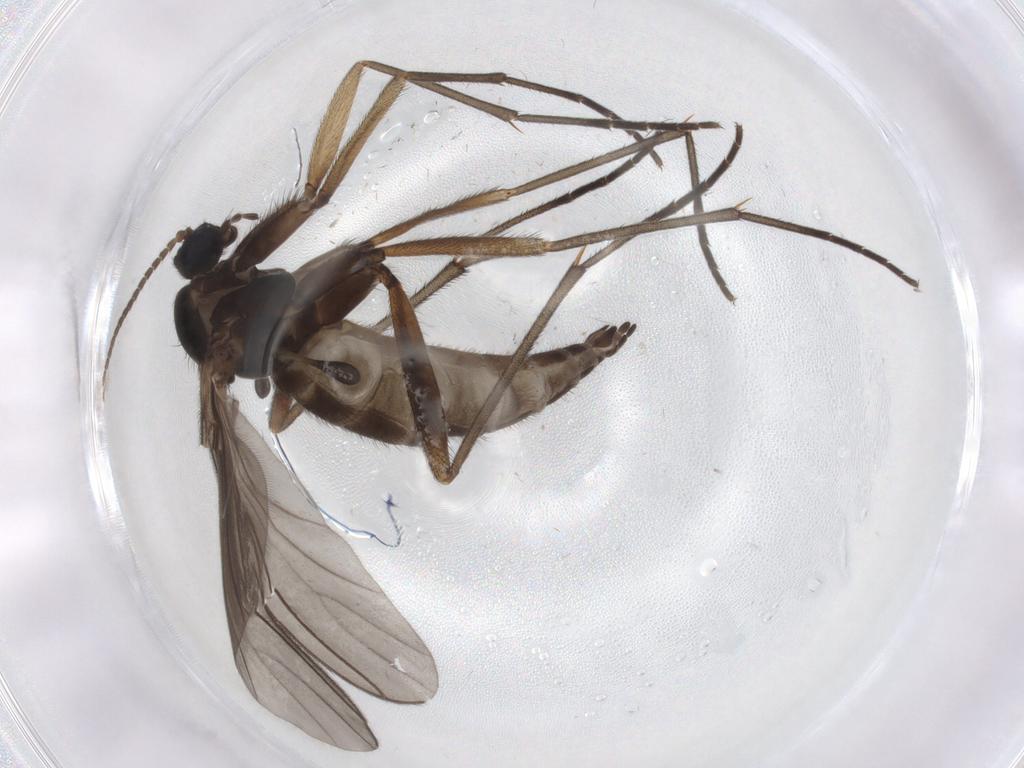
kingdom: Animalia
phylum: Arthropoda
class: Insecta
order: Diptera
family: Sciaridae
